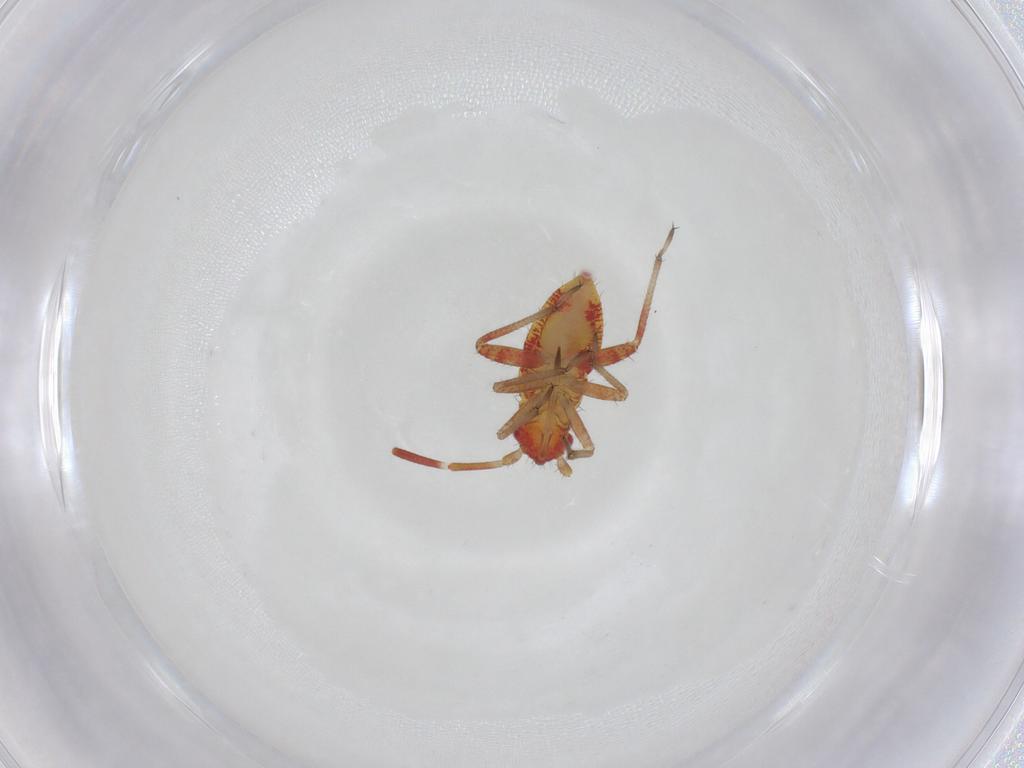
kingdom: Animalia
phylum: Arthropoda
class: Insecta
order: Hemiptera
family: Miridae
